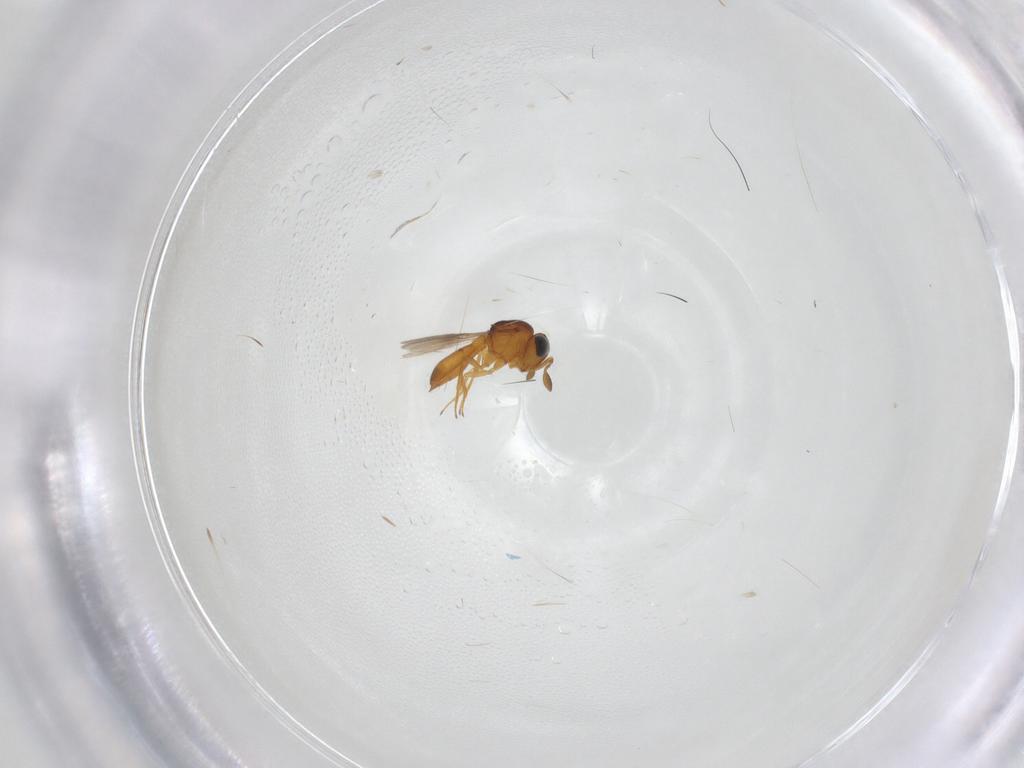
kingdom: Animalia
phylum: Arthropoda
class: Insecta
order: Hymenoptera
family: Scelionidae
